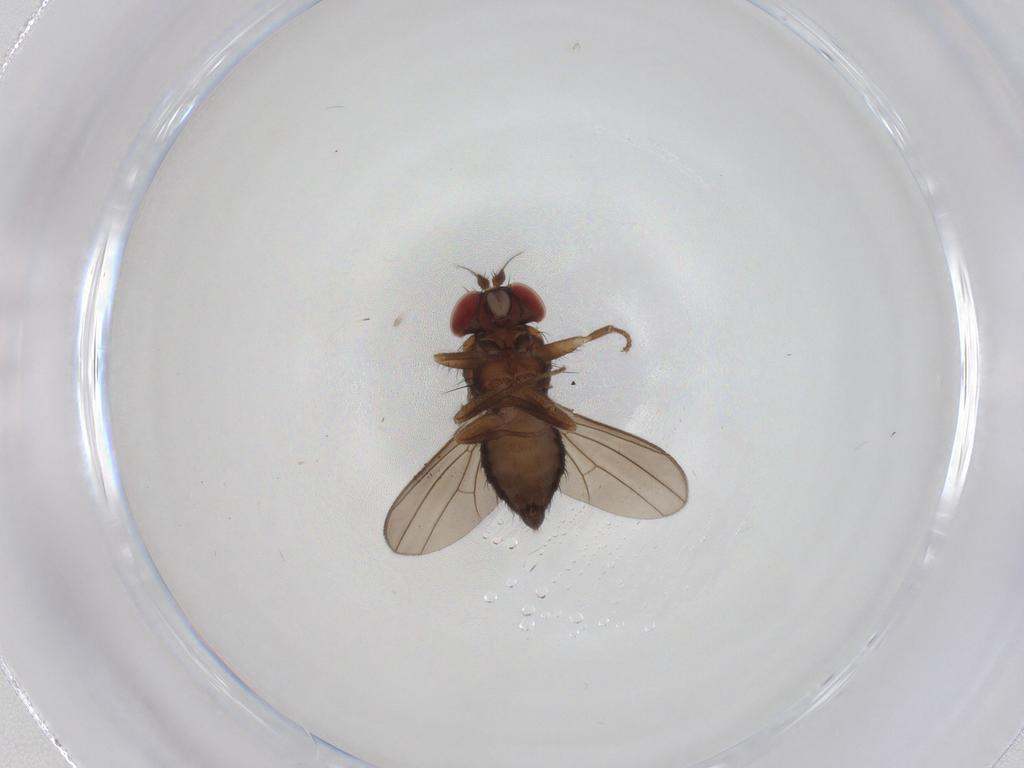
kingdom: Animalia
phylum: Arthropoda
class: Insecta
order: Diptera
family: Drosophilidae
